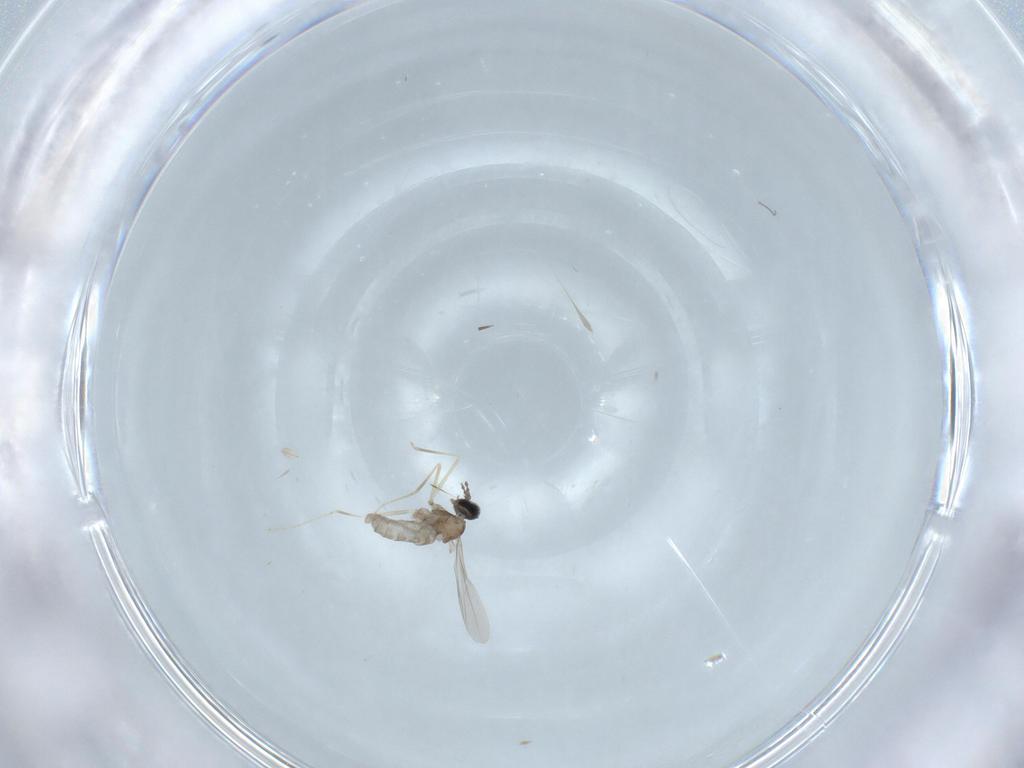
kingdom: Animalia
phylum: Arthropoda
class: Insecta
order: Diptera
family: Cecidomyiidae
